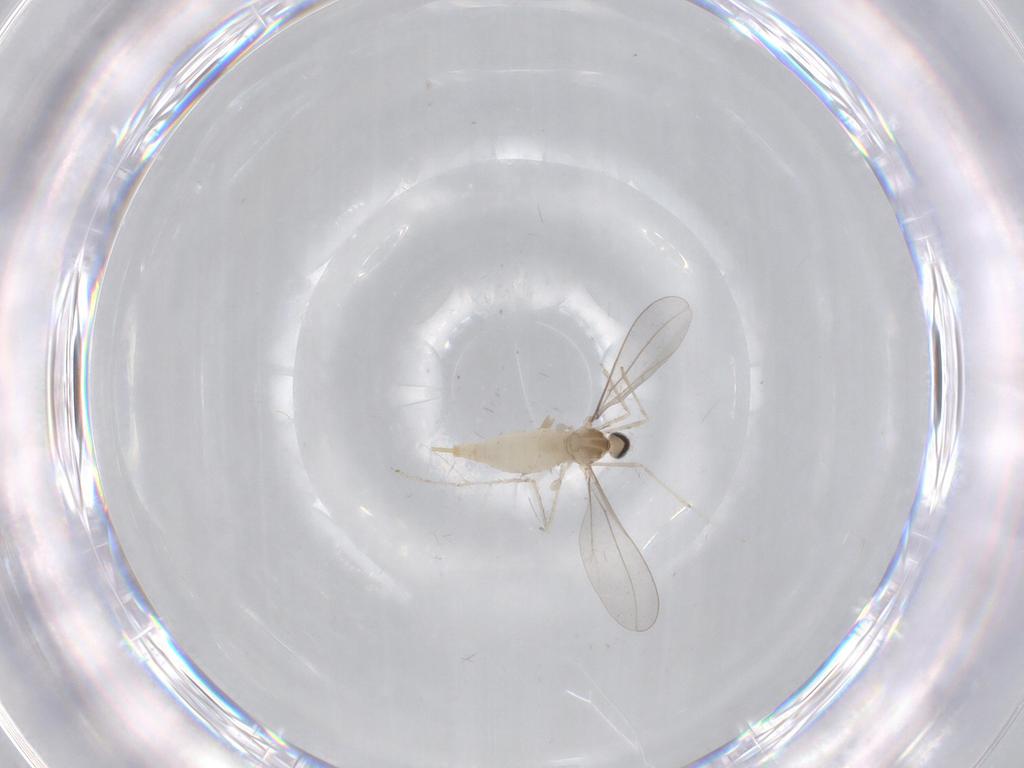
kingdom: Animalia
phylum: Arthropoda
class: Insecta
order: Diptera
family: Cecidomyiidae
